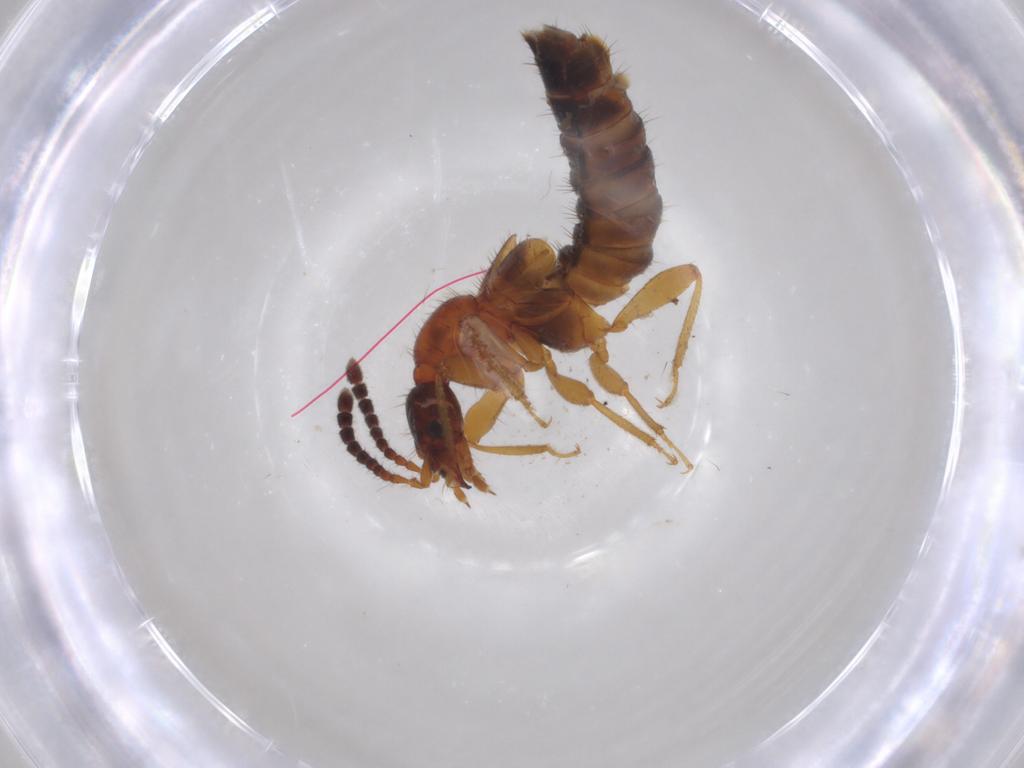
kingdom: Animalia
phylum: Arthropoda
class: Insecta
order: Coleoptera
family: Staphylinidae
